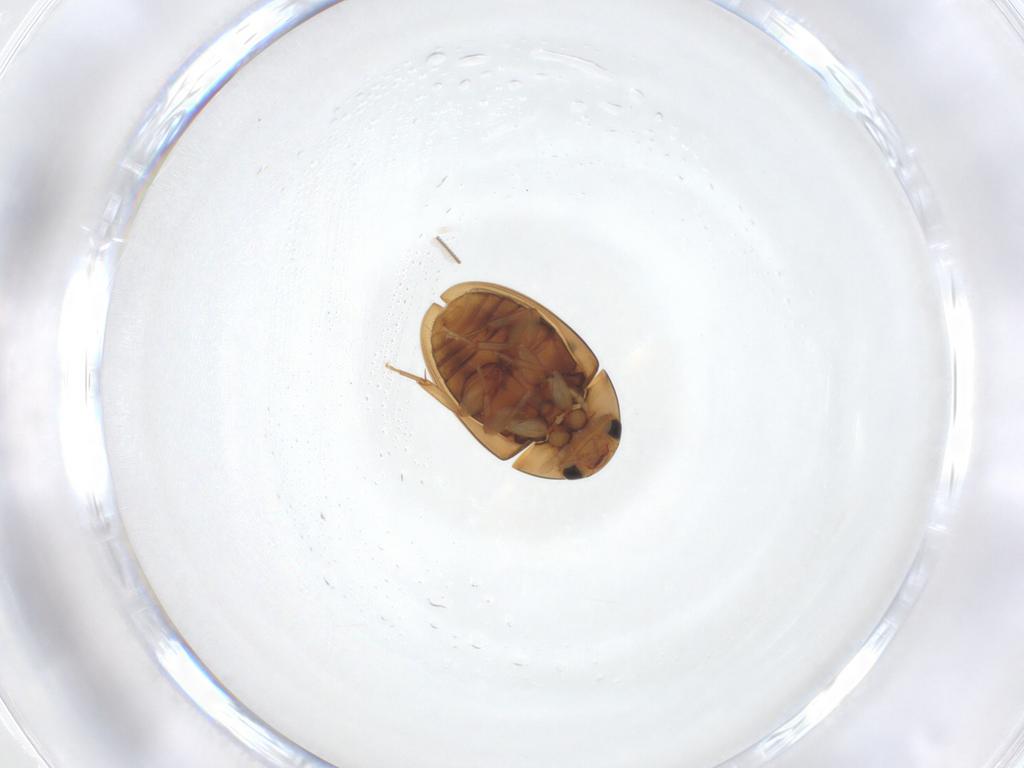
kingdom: Animalia
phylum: Arthropoda
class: Insecta
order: Coleoptera
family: Phalacridae
